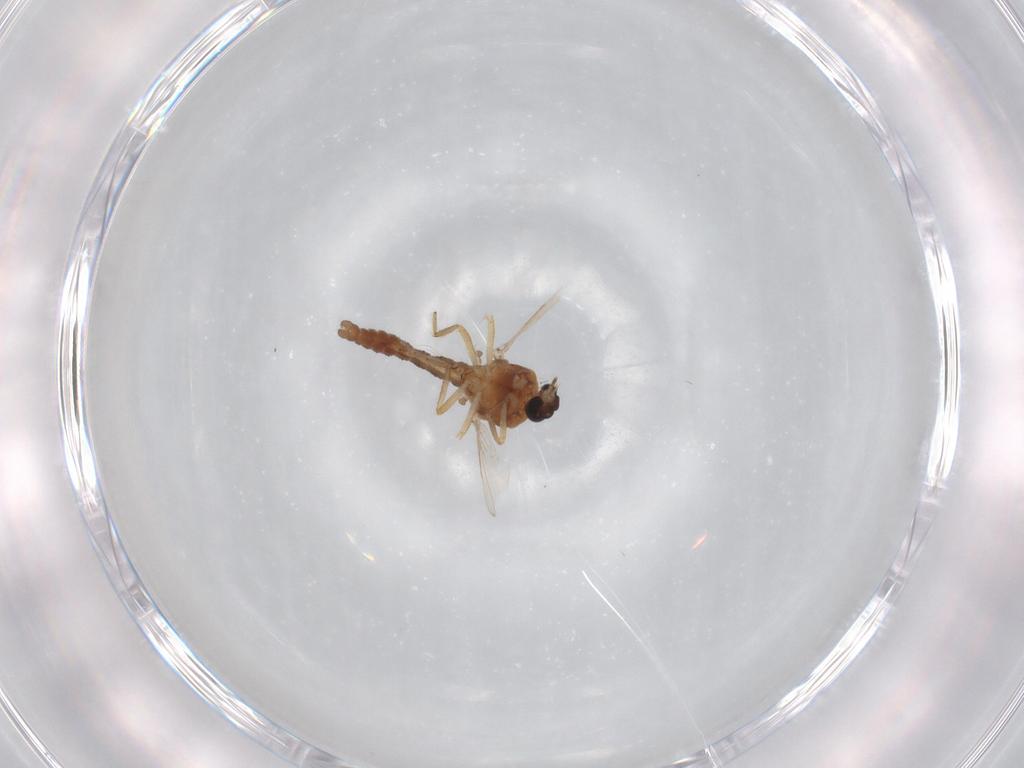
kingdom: Animalia
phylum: Arthropoda
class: Insecta
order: Diptera
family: Ceratopogonidae
